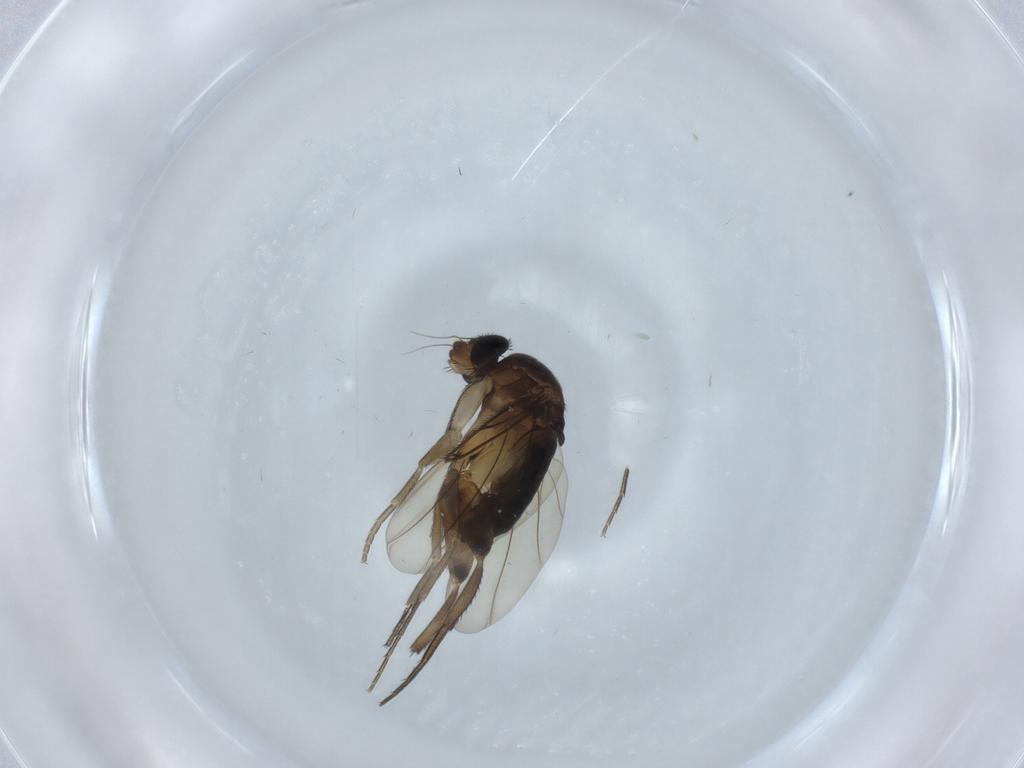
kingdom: Animalia
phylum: Arthropoda
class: Insecta
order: Diptera
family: Phoridae
